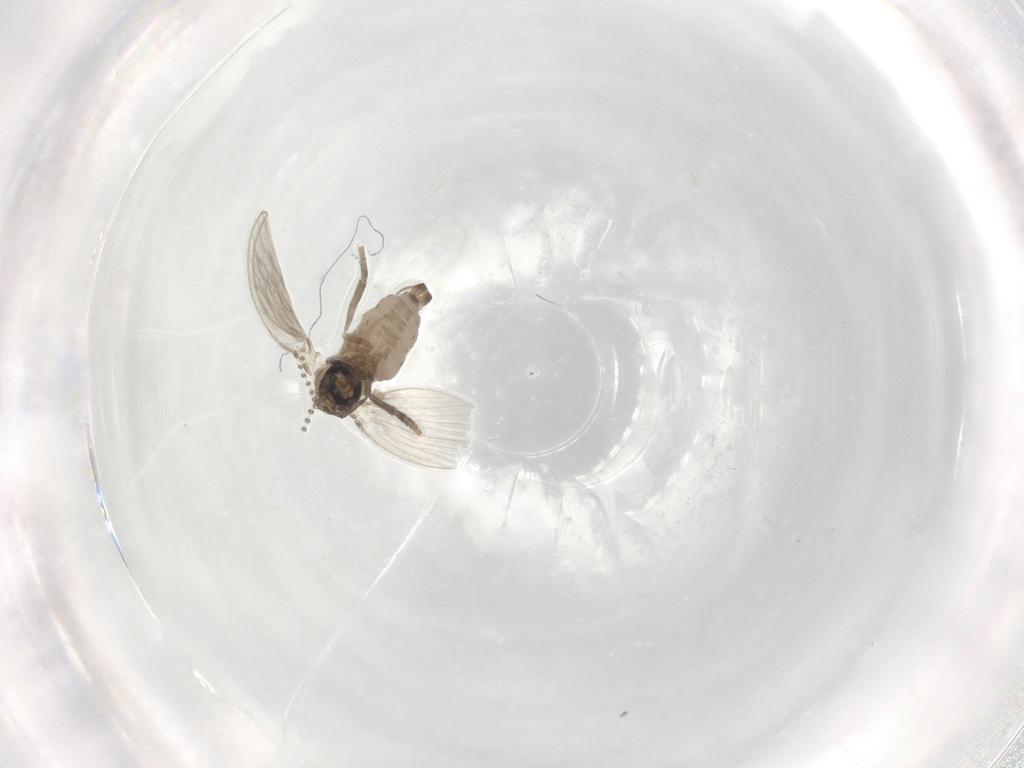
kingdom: Animalia
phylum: Arthropoda
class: Insecta
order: Diptera
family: Psychodidae
